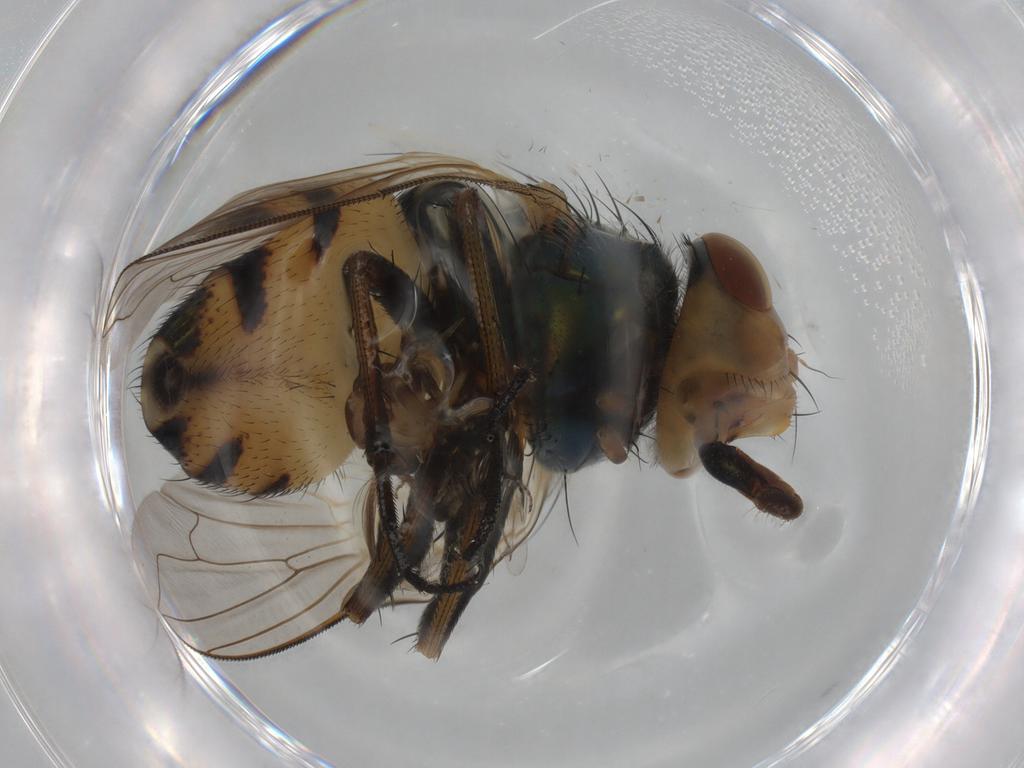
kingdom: Animalia
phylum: Arthropoda
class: Insecta
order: Diptera
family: Calliphoridae
